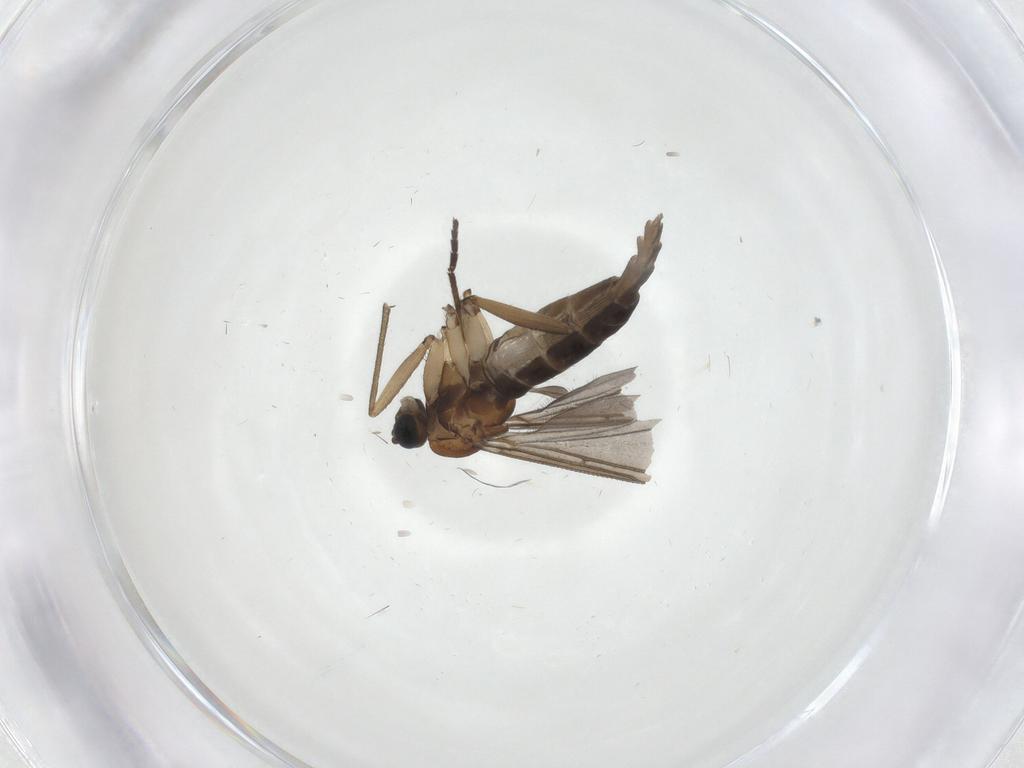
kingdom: Animalia
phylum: Arthropoda
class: Insecta
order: Diptera
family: Sciaridae
